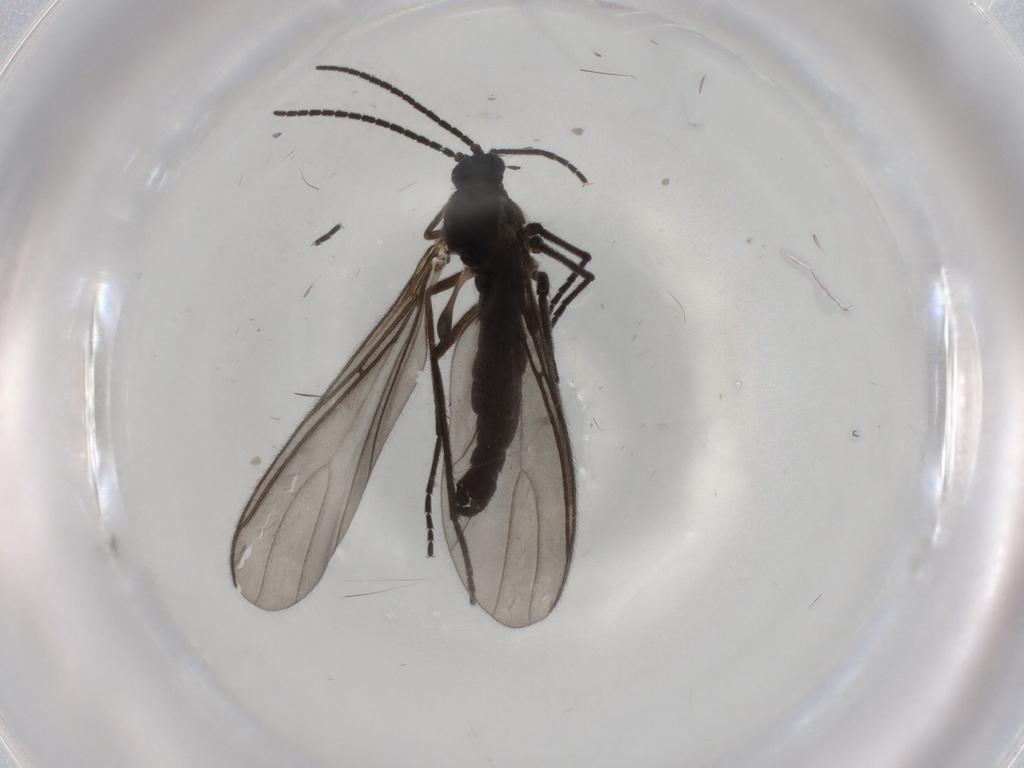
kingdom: Animalia
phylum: Arthropoda
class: Insecta
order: Diptera
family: Sciaridae
